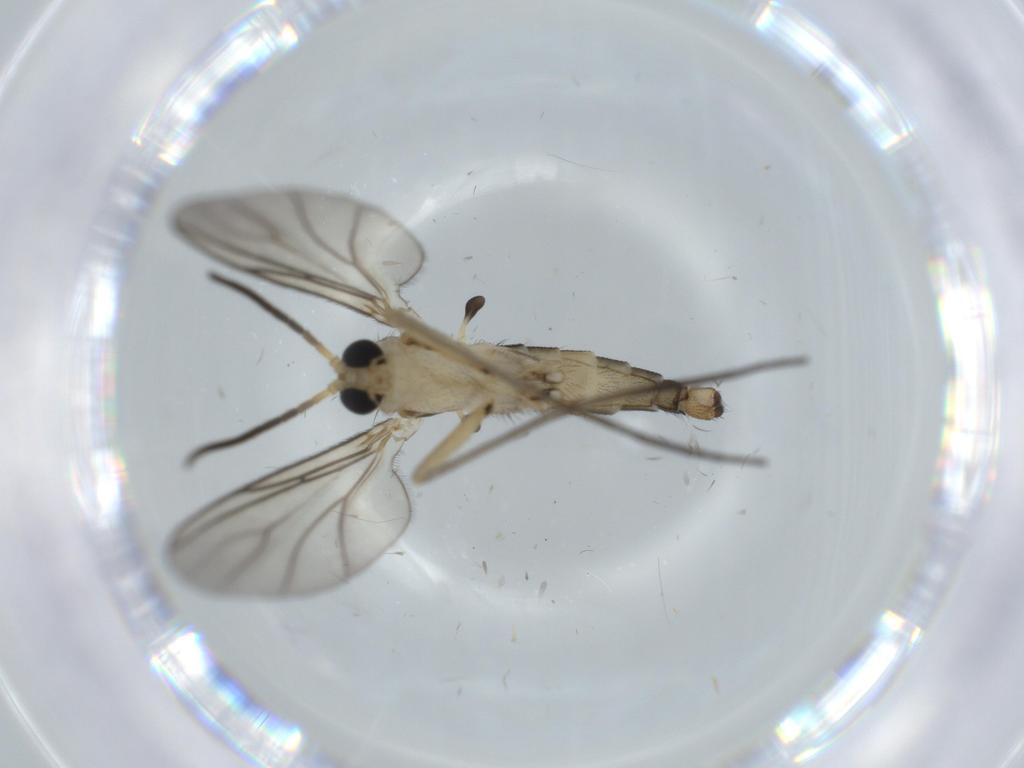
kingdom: Animalia
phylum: Arthropoda
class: Insecta
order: Diptera
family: Sciaridae
